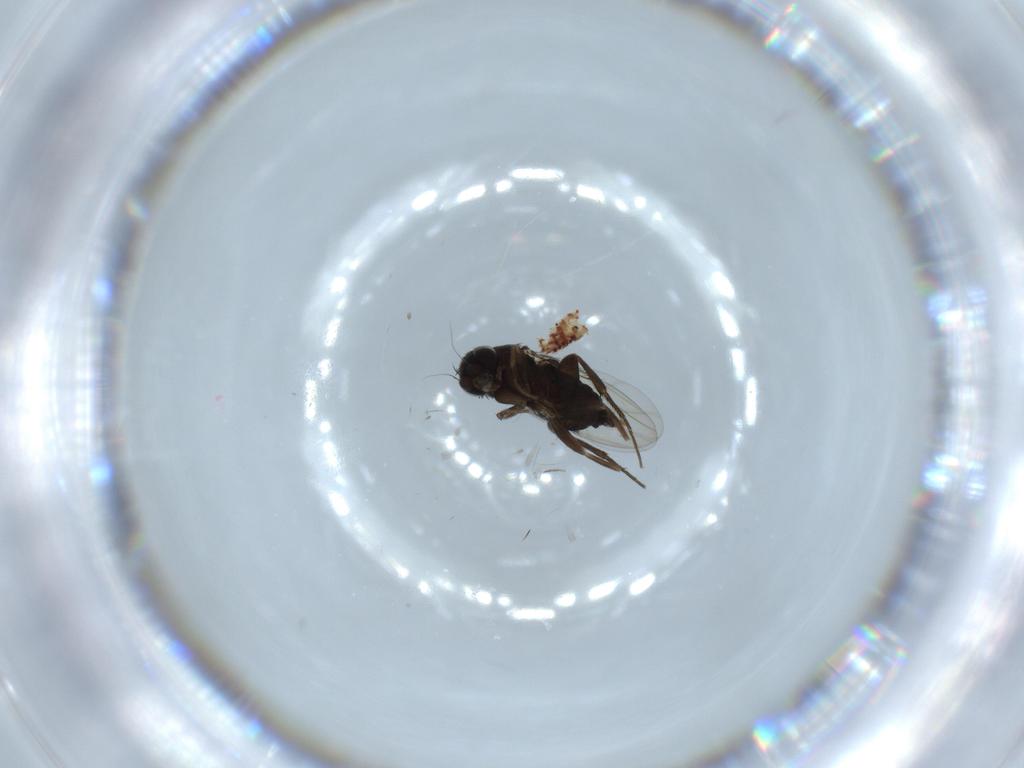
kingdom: Animalia
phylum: Arthropoda
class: Insecta
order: Diptera
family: Phoridae
